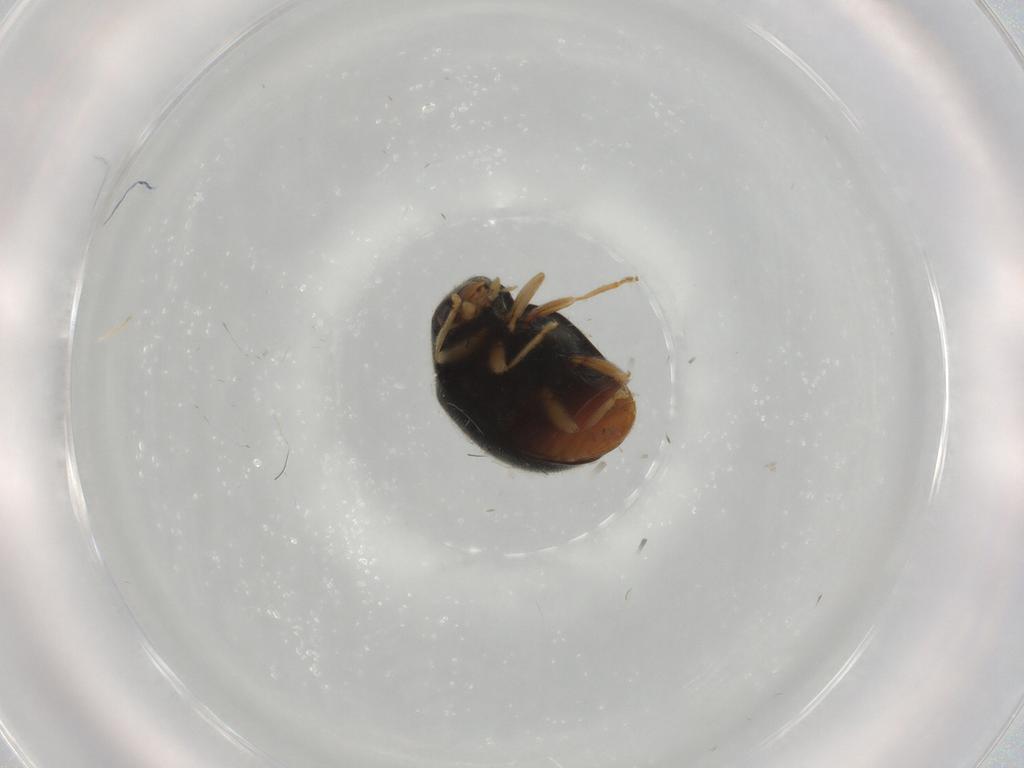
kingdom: Animalia
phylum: Arthropoda
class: Insecta
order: Coleoptera
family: Coccinellidae
